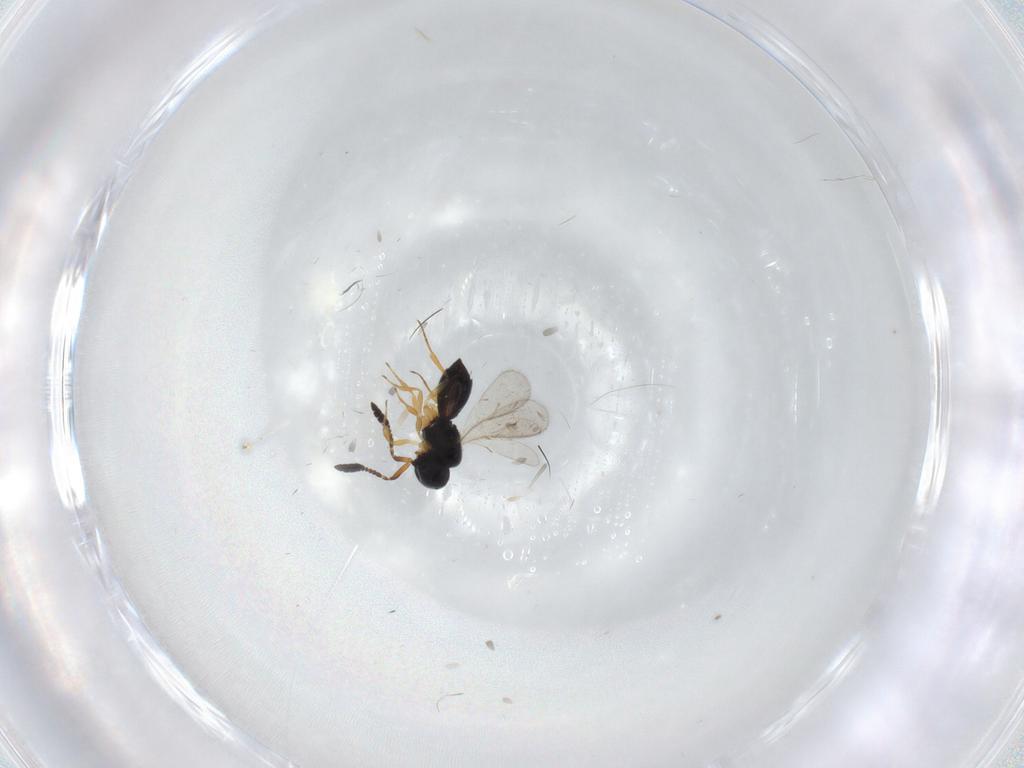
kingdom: Animalia
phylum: Arthropoda
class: Insecta
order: Hymenoptera
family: Scelionidae
